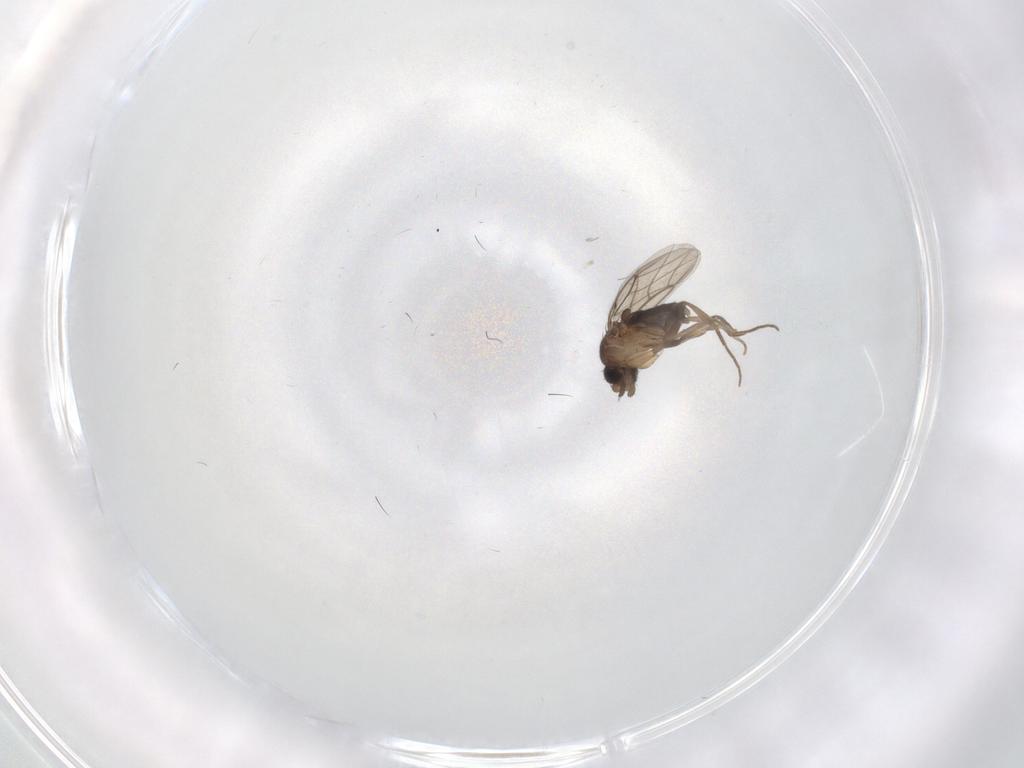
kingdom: Animalia
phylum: Arthropoda
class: Insecta
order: Diptera
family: Phoridae
